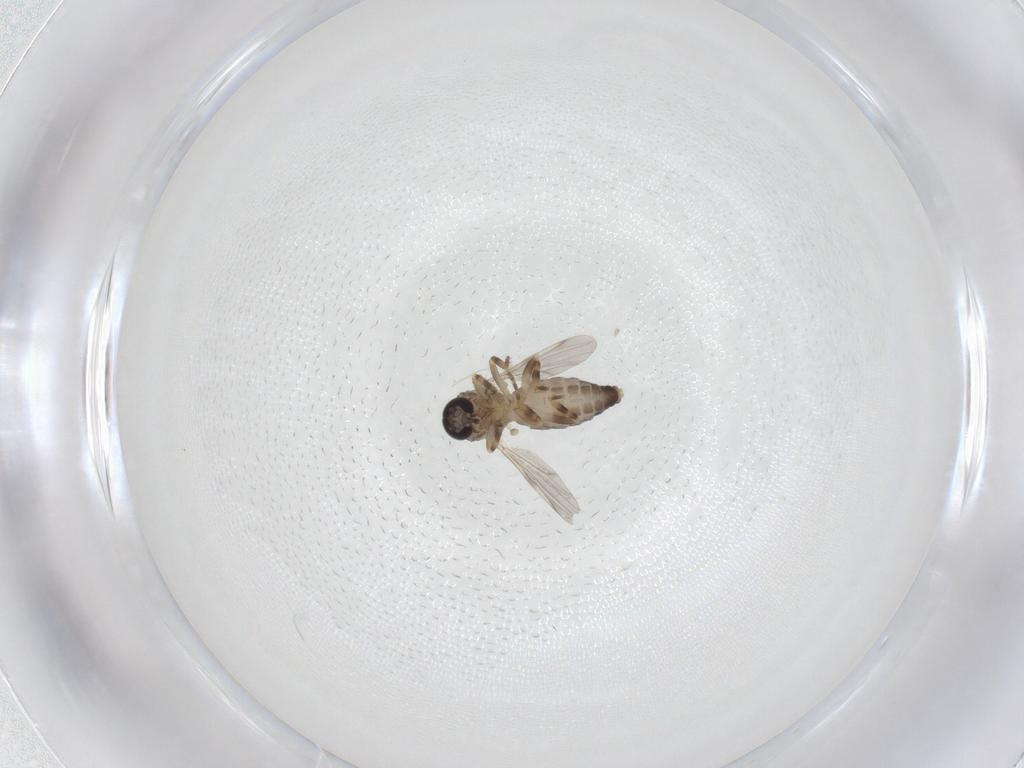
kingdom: Animalia
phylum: Arthropoda
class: Insecta
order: Diptera
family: Ceratopogonidae
